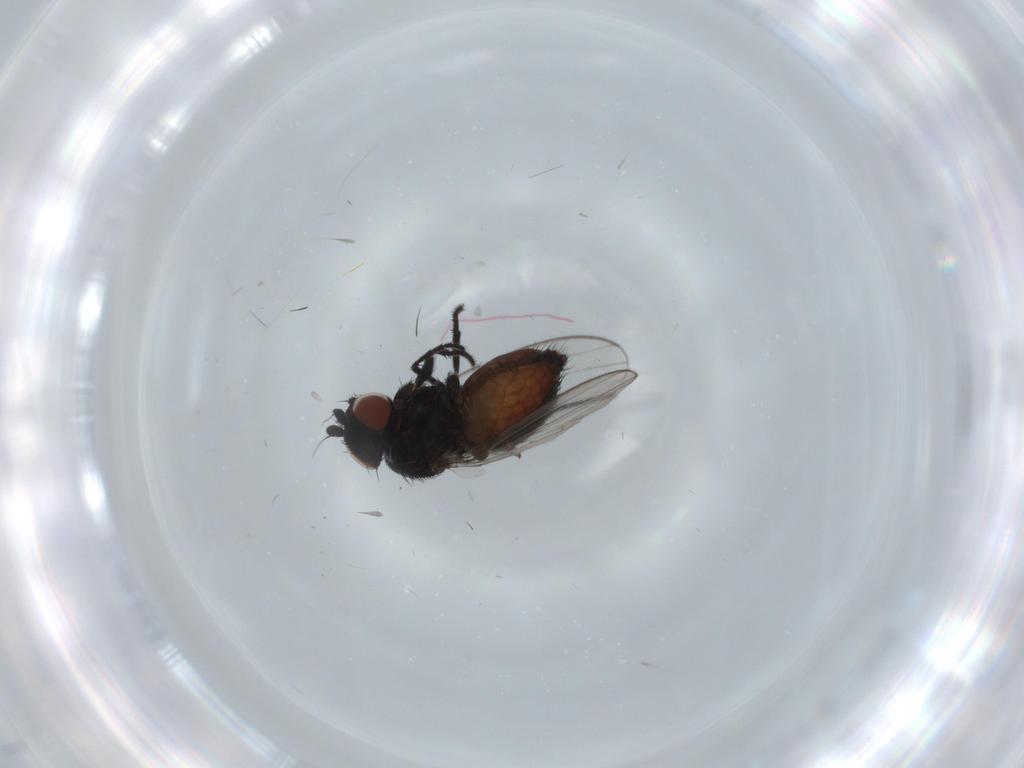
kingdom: Animalia
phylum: Arthropoda
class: Insecta
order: Diptera
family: Milichiidae
